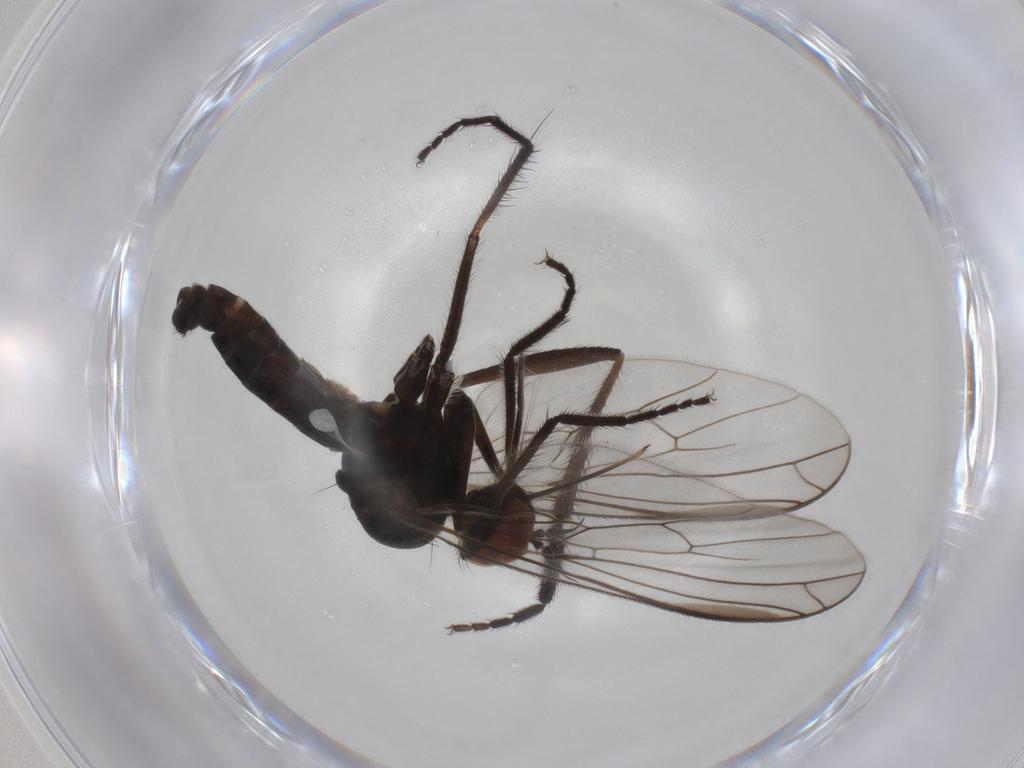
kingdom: Animalia
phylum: Arthropoda
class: Insecta
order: Diptera
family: Empididae
